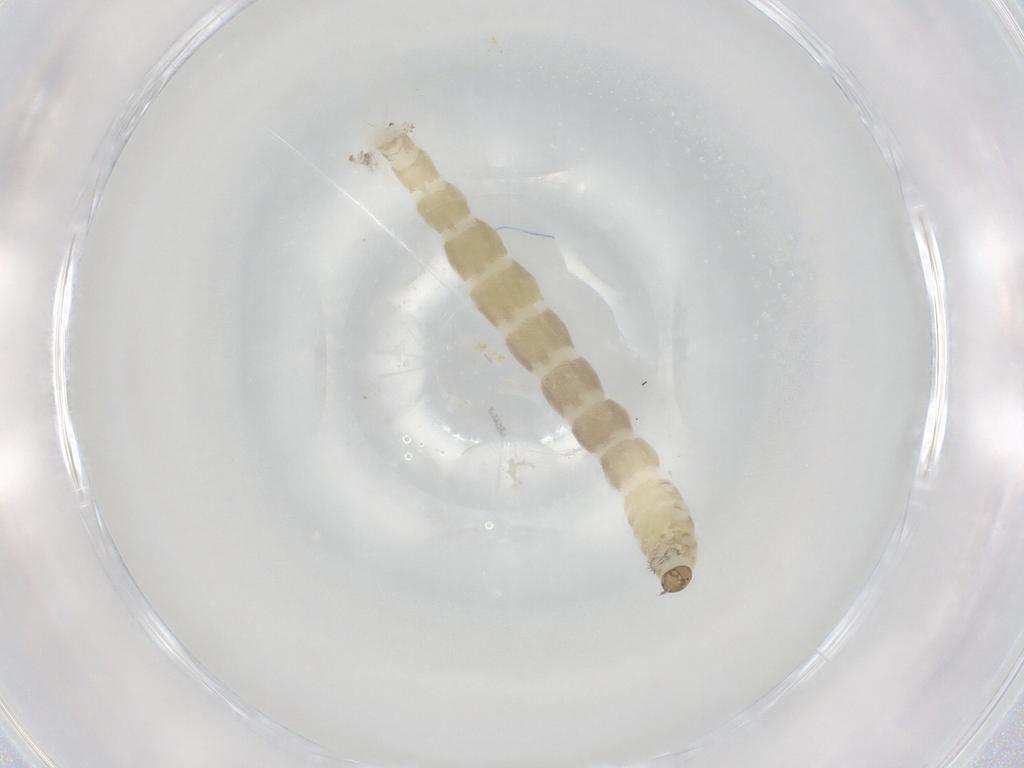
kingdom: Animalia
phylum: Arthropoda
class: Insecta
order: Diptera
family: Chironomidae
